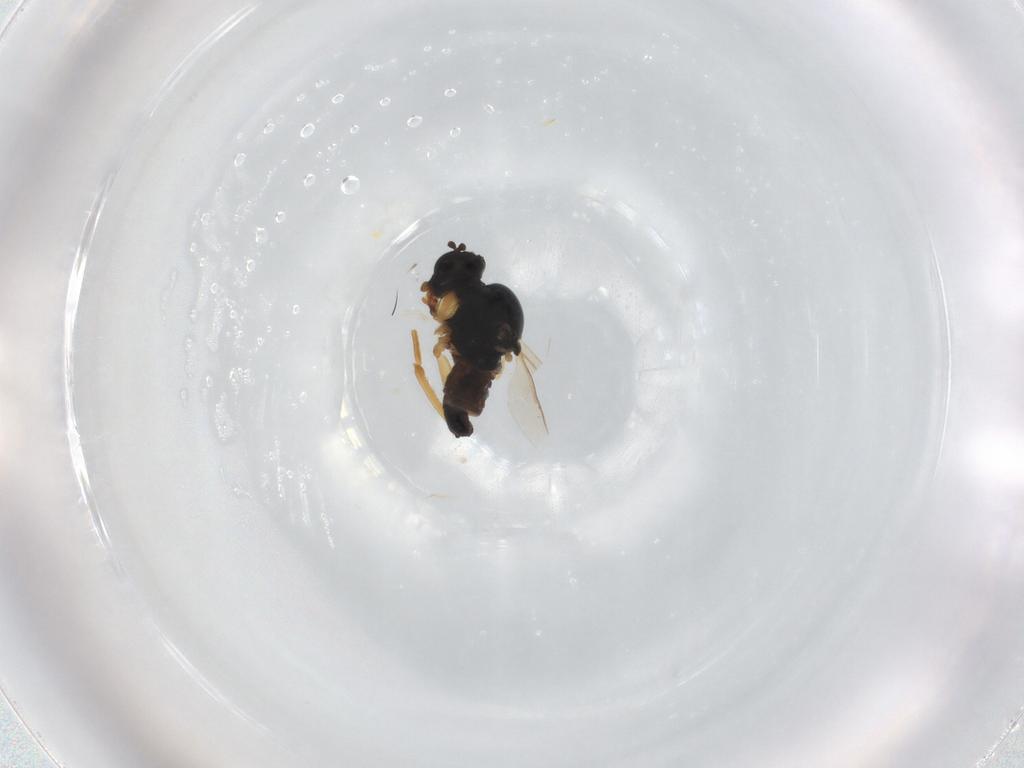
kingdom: Animalia
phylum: Arthropoda
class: Insecta
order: Diptera
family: Hybotidae
